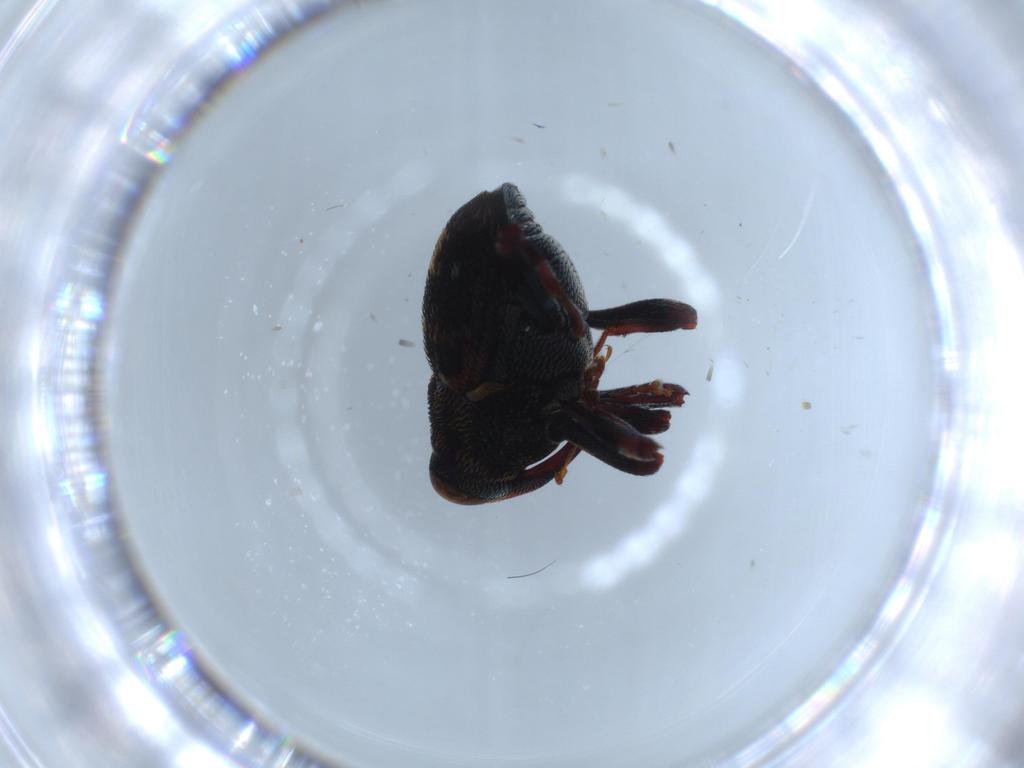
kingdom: Animalia
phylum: Arthropoda
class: Insecta
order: Coleoptera
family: Curculionidae
